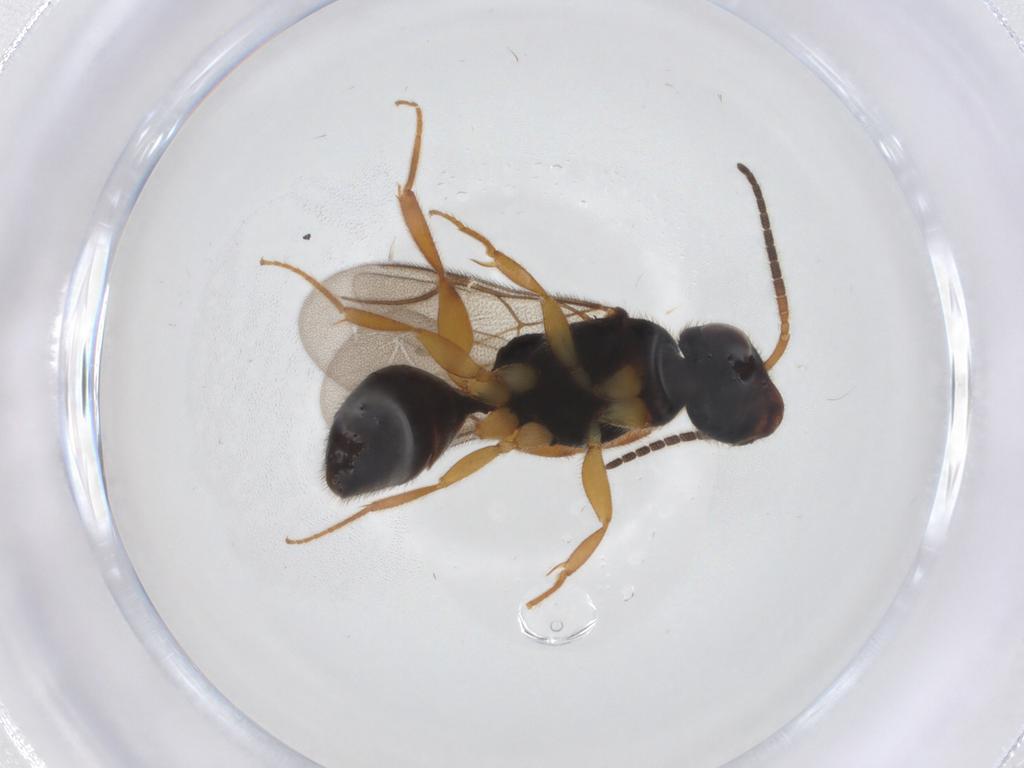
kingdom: Animalia
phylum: Arthropoda
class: Insecta
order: Hymenoptera
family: Bethylidae
